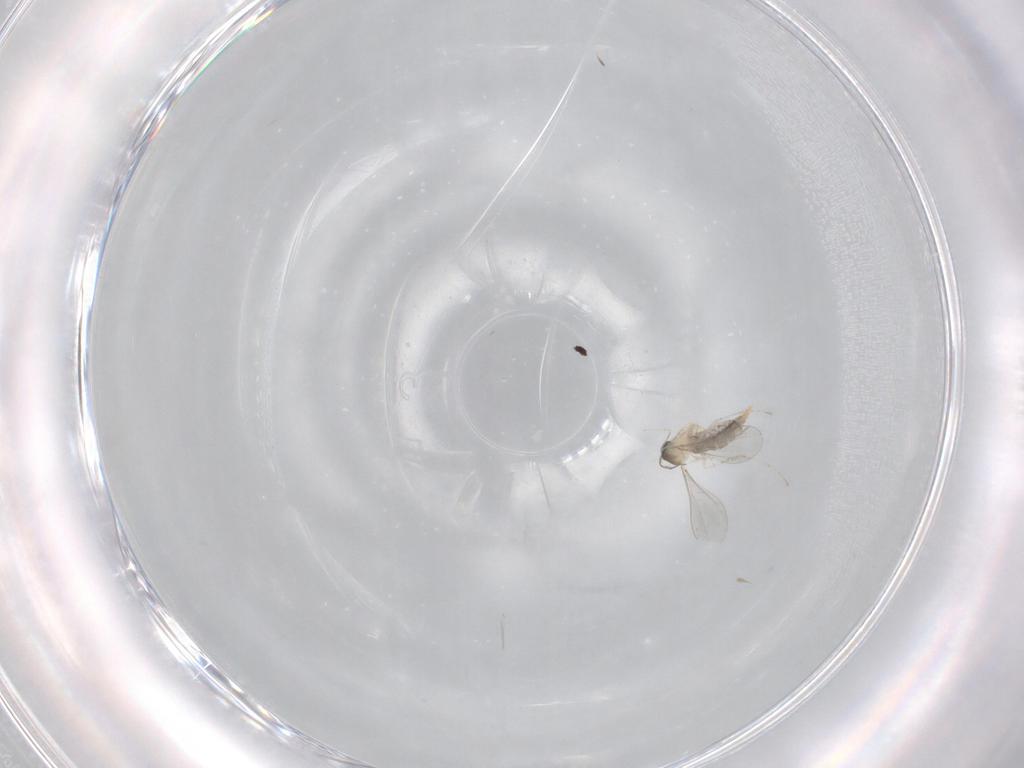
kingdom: Animalia
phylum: Arthropoda
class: Insecta
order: Diptera
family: Cecidomyiidae
